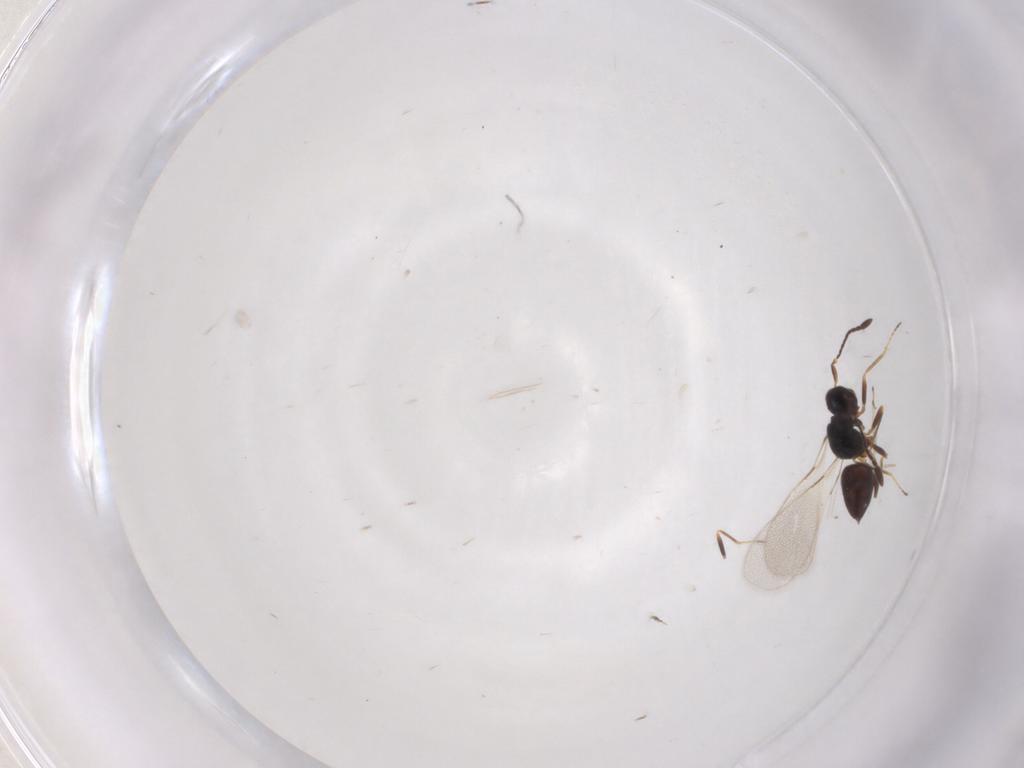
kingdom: Animalia
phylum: Arthropoda
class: Insecta
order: Hymenoptera
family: Mymaridae
